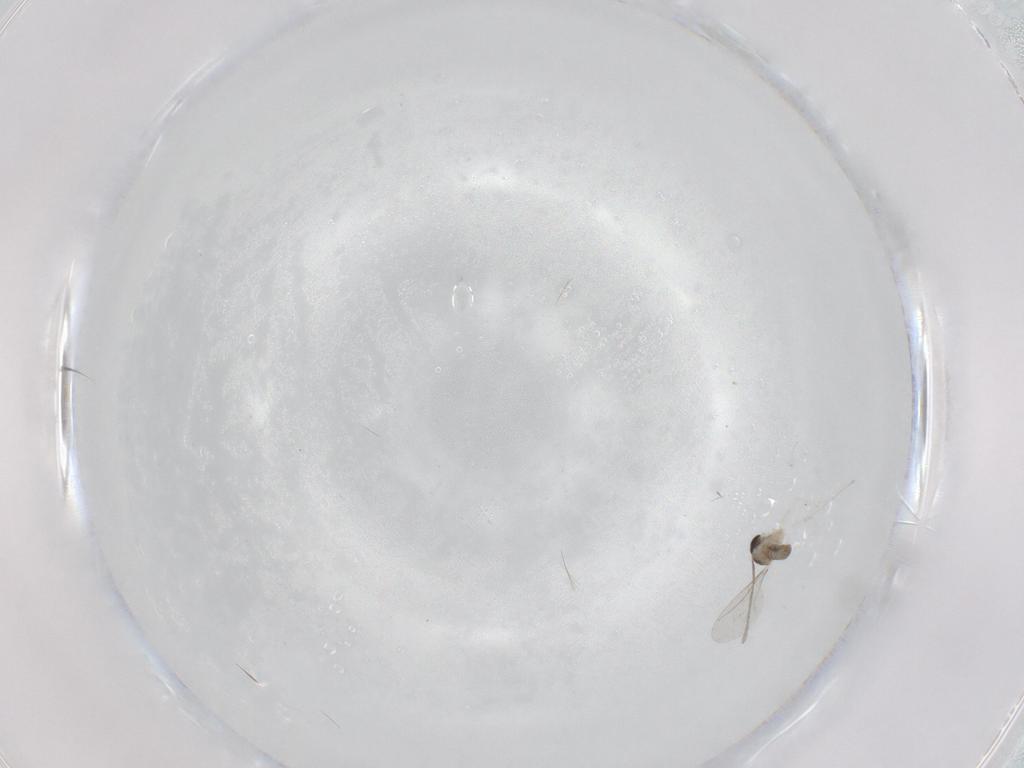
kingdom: Animalia
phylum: Arthropoda
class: Insecta
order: Diptera
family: Cecidomyiidae
